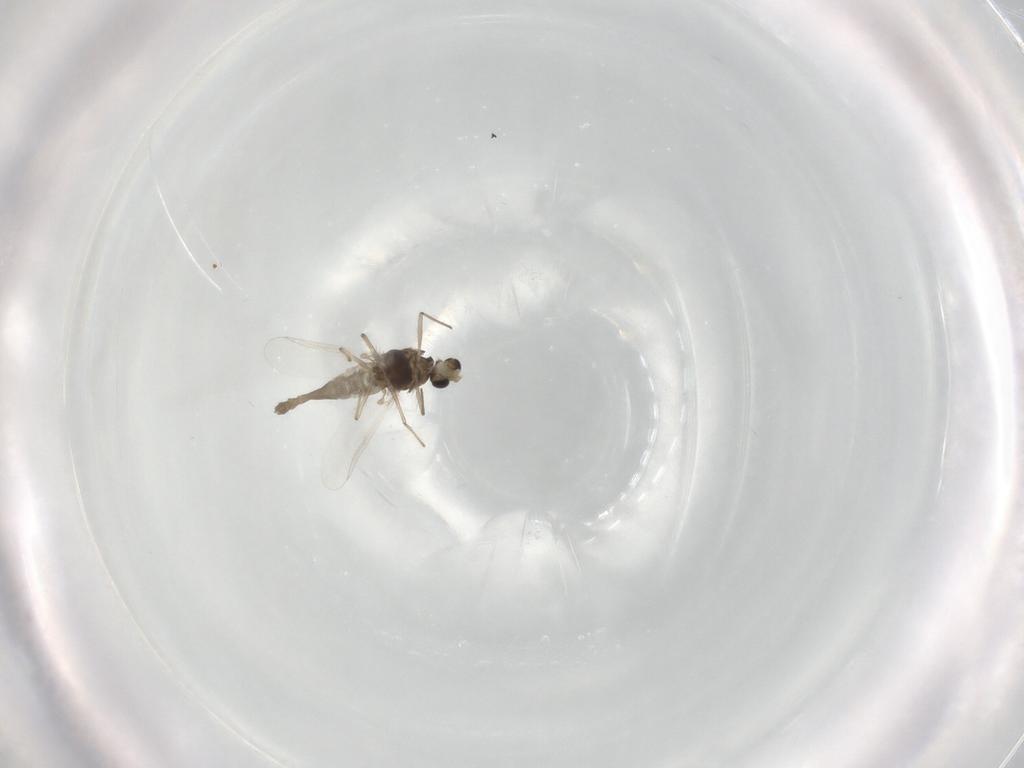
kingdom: Animalia
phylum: Arthropoda
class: Insecta
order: Diptera
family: Chironomidae
